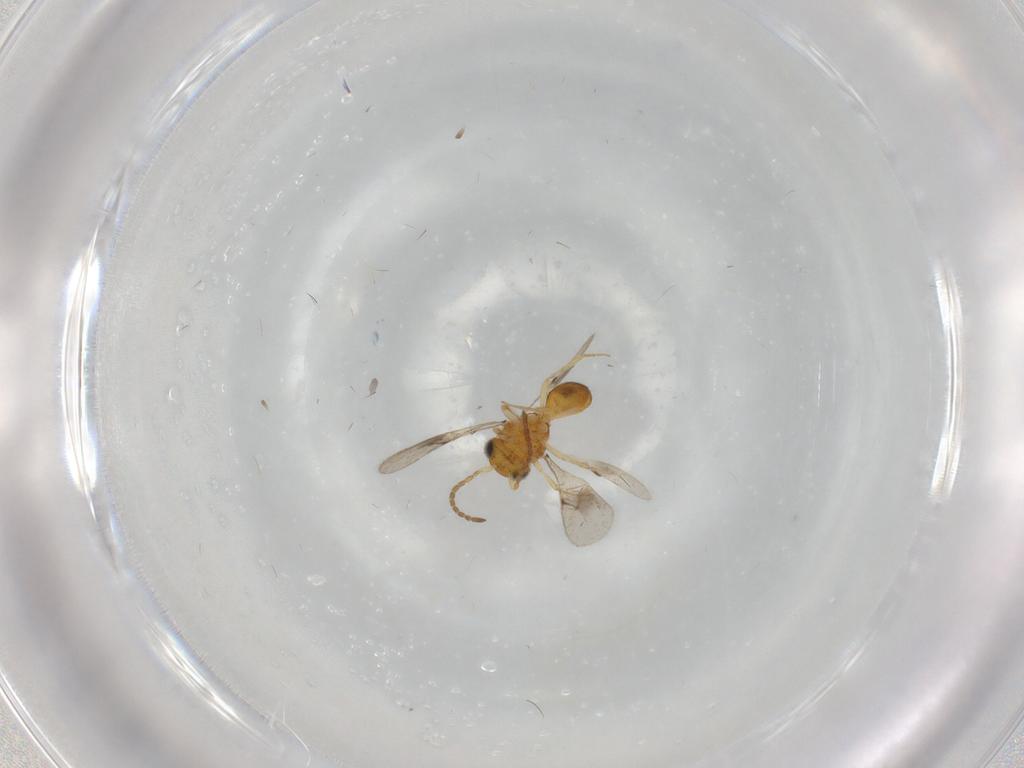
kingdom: Animalia
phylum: Arthropoda
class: Insecta
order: Hymenoptera
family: Scelionidae
